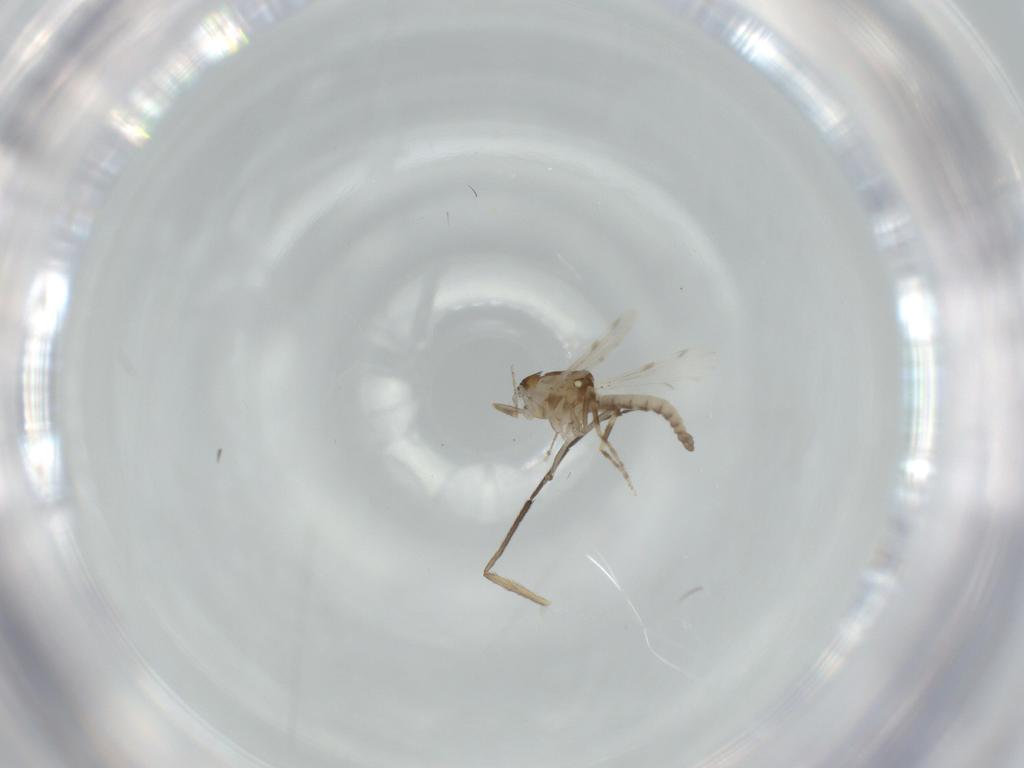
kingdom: Animalia
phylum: Arthropoda
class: Insecta
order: Diptera
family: Ceratopogonidae
